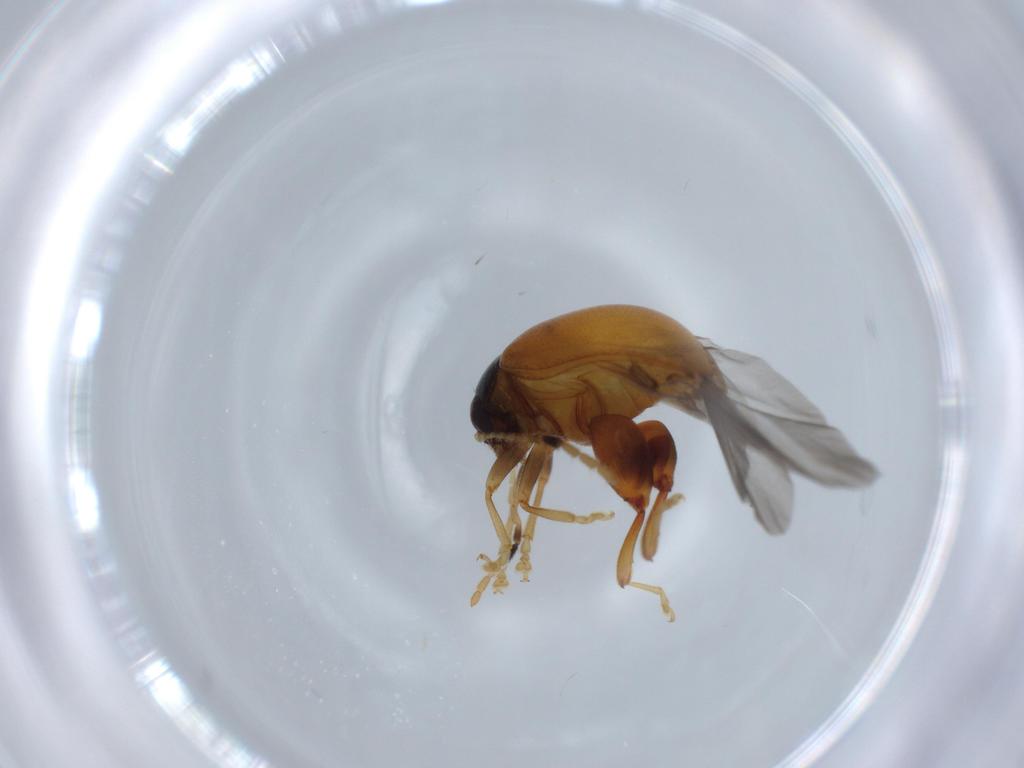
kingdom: Animalia
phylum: Arthropoda
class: Insecta
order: Coleoptera
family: Chrysomelidae
